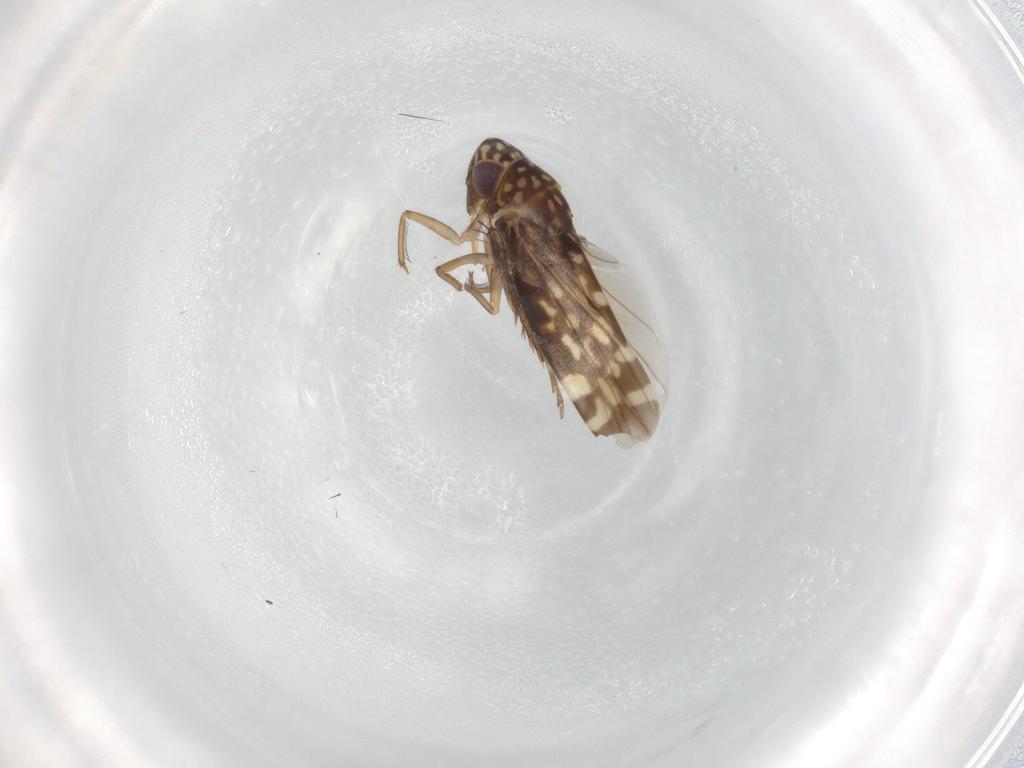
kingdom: Animalia
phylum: Arthropoda
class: Insecta
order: Hemiptera
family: Cicadellidae
